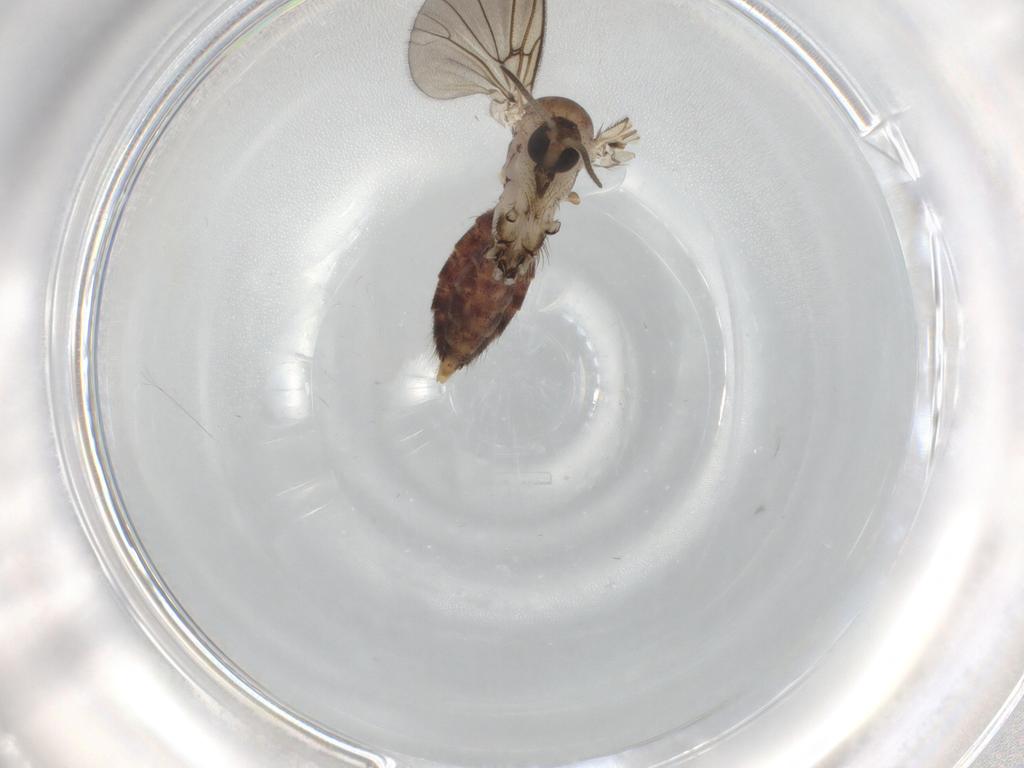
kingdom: Animalia
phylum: Arthropoda
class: Insecta
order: Diptera
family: Mycetophilidae
